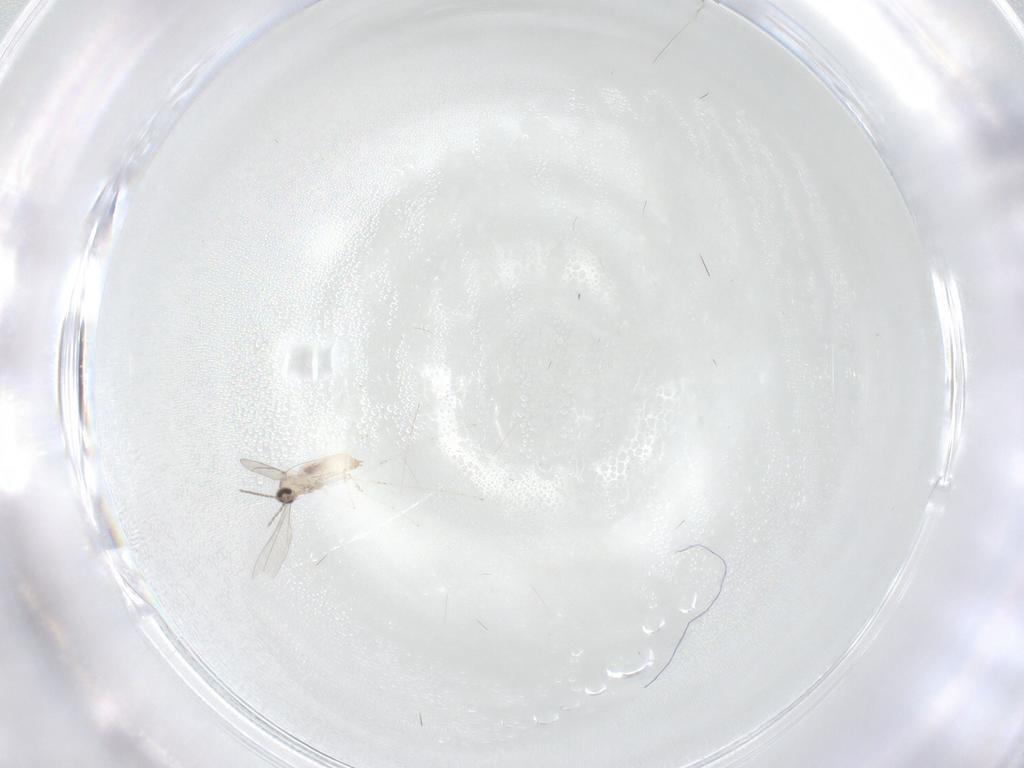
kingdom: Animalia
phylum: Arthropoda
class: Insecta
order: Diptera
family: Cecidomyiidae
